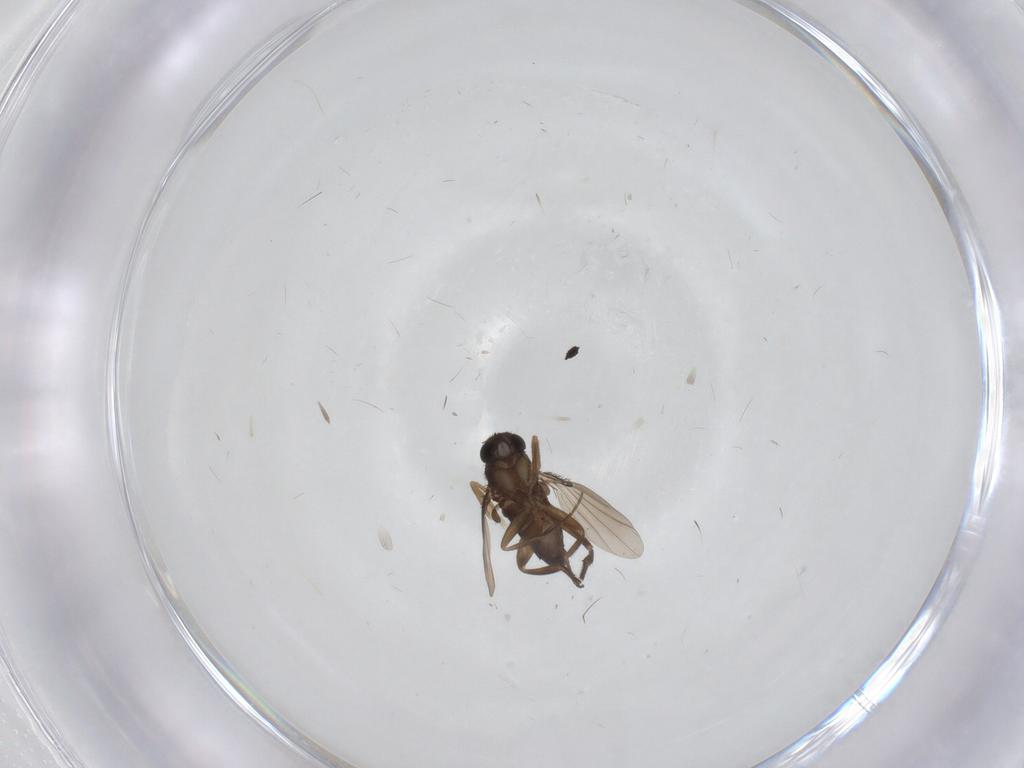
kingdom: Animalia
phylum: Arthropoda
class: Insecta
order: Diptera
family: Phoridae
